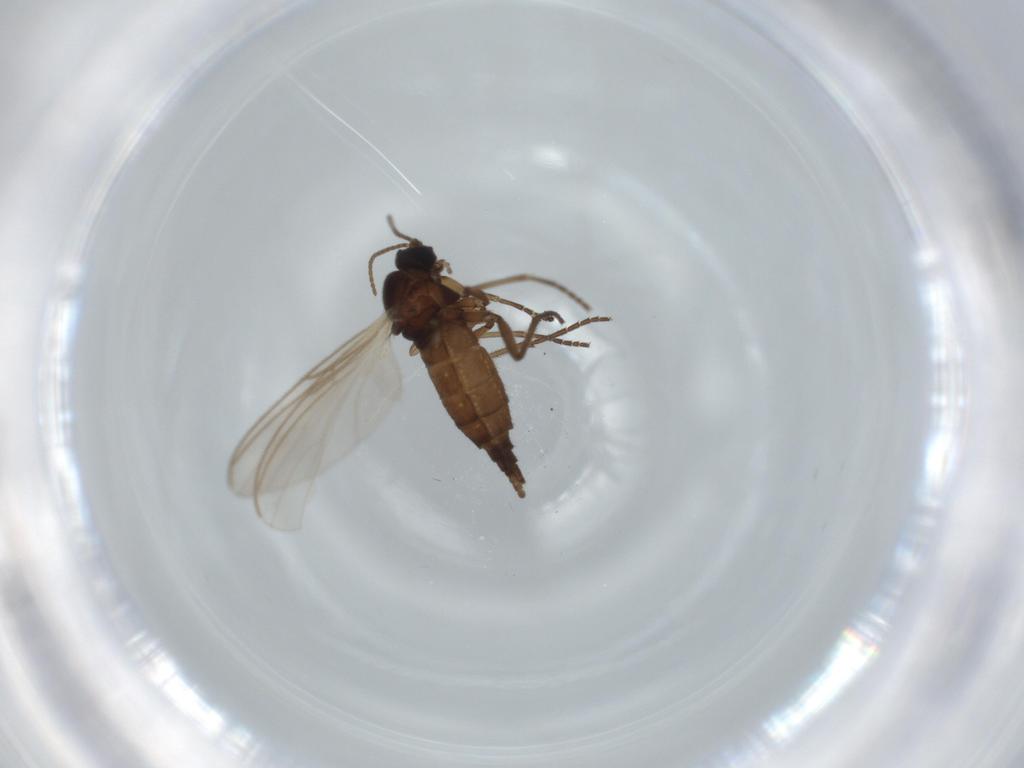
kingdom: Animalia
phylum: Arthropoda
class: Insecta
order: Diptera
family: Sciaridae
